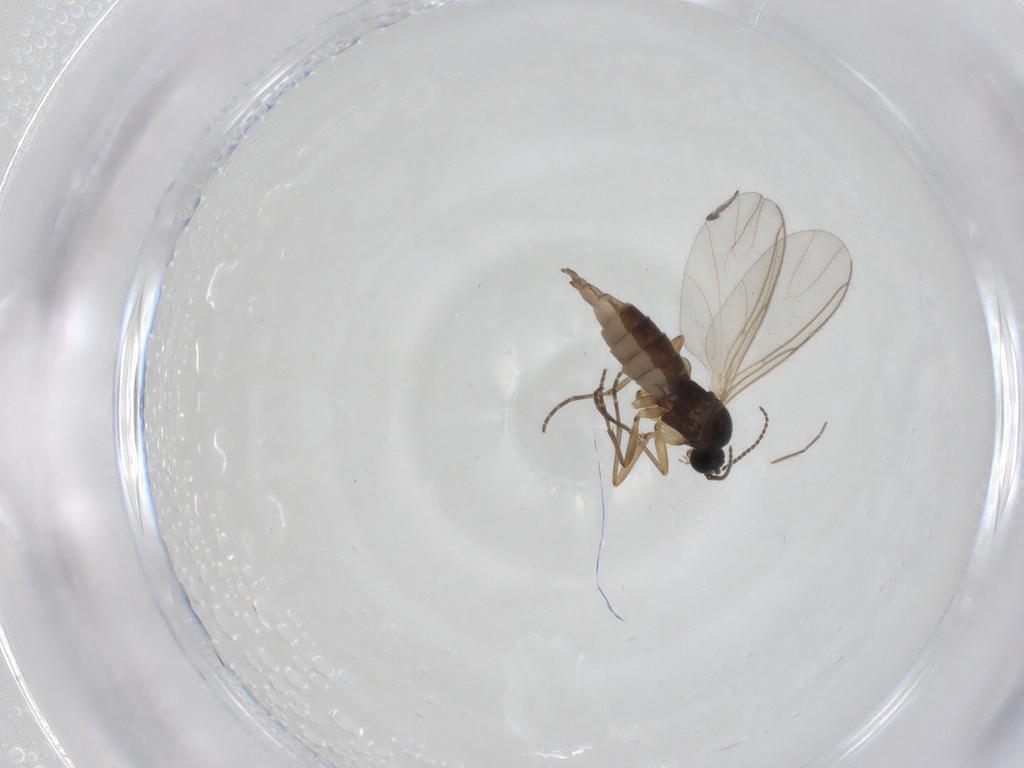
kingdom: Animalia
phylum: Arthropoda
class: Insecta
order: Diptera
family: Sciaridae
